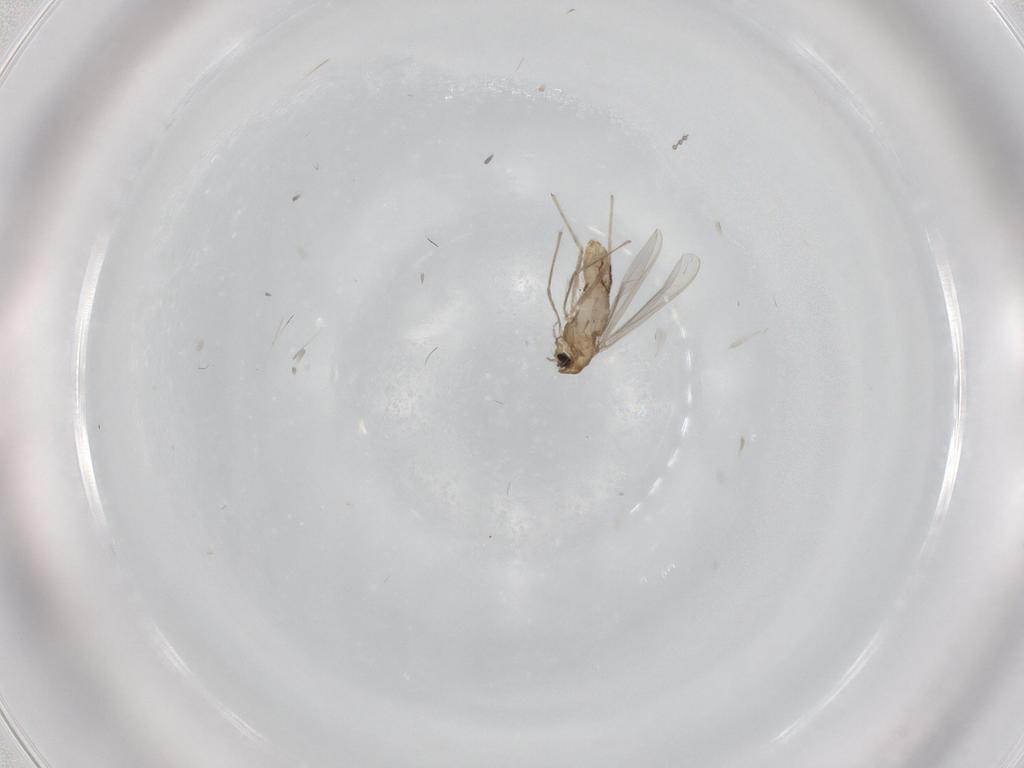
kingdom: Animalia
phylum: Arthropoda
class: Insecta
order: Diptera
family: Chironomidae
